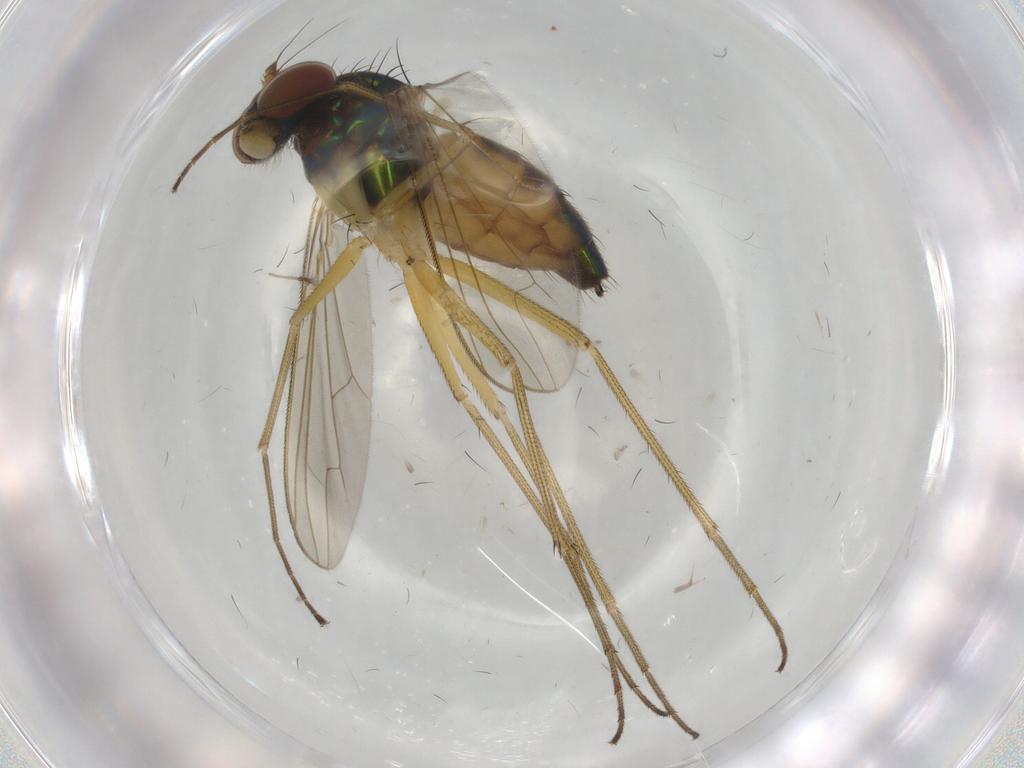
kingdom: Animalia
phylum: Arthropoda
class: Insecta
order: Diptera
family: Dolichopodidae
